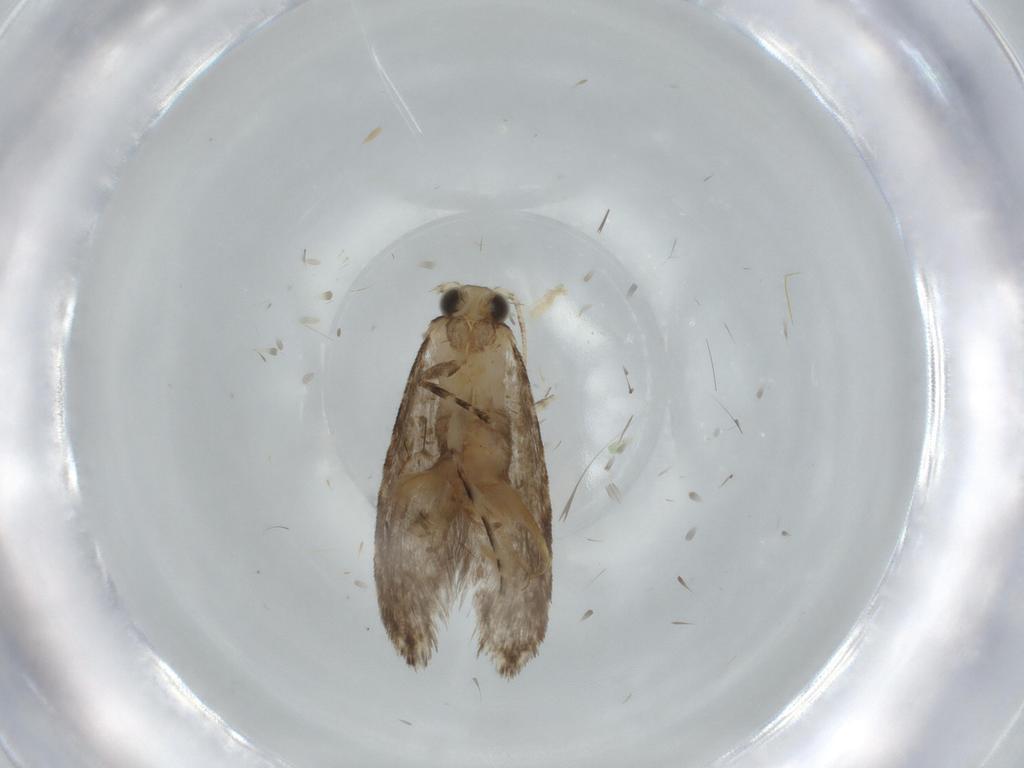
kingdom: Animalia
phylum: Arthropoda
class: Insecta
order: Lepidoptera
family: Tineidae
